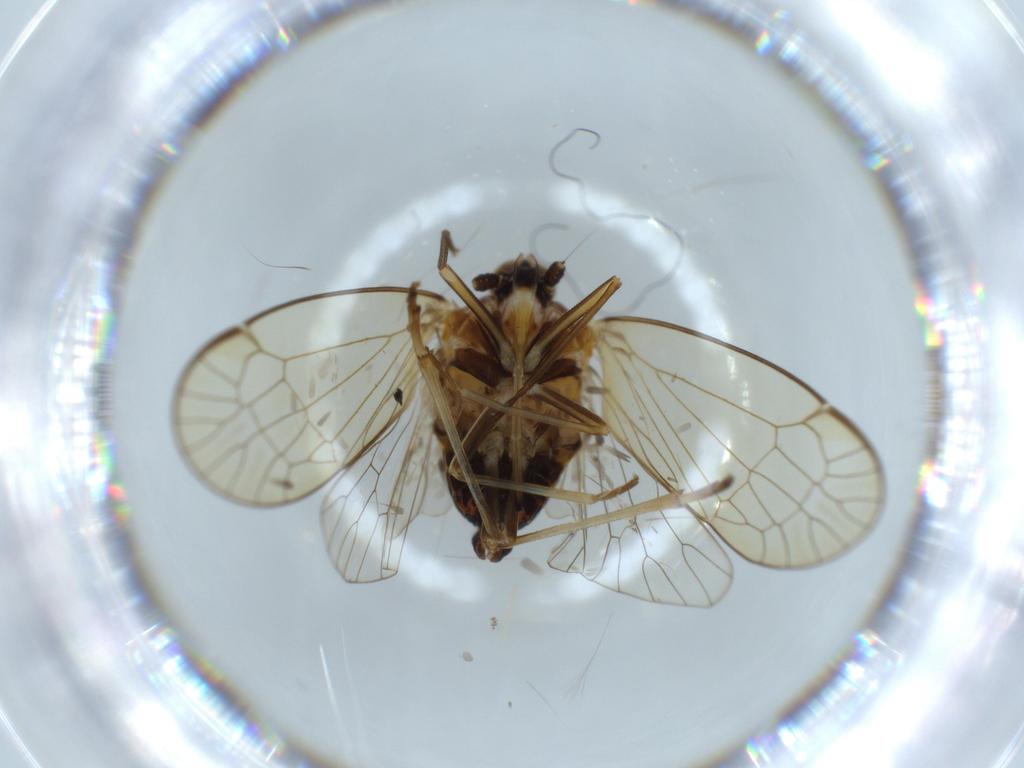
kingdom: Animalia
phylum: Arthropoda
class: Insecta
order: Hemiptera
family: Kinnaridae
